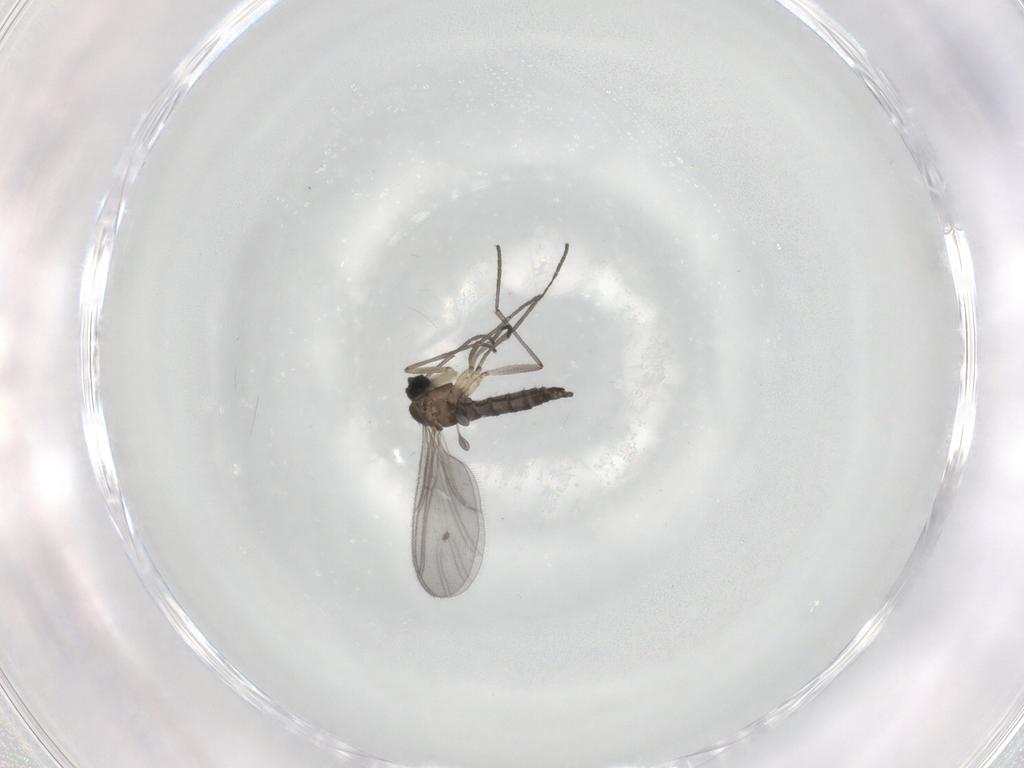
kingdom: Animalia
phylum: Arthropoda
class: Insecta
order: Diptera
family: Sciaridae
